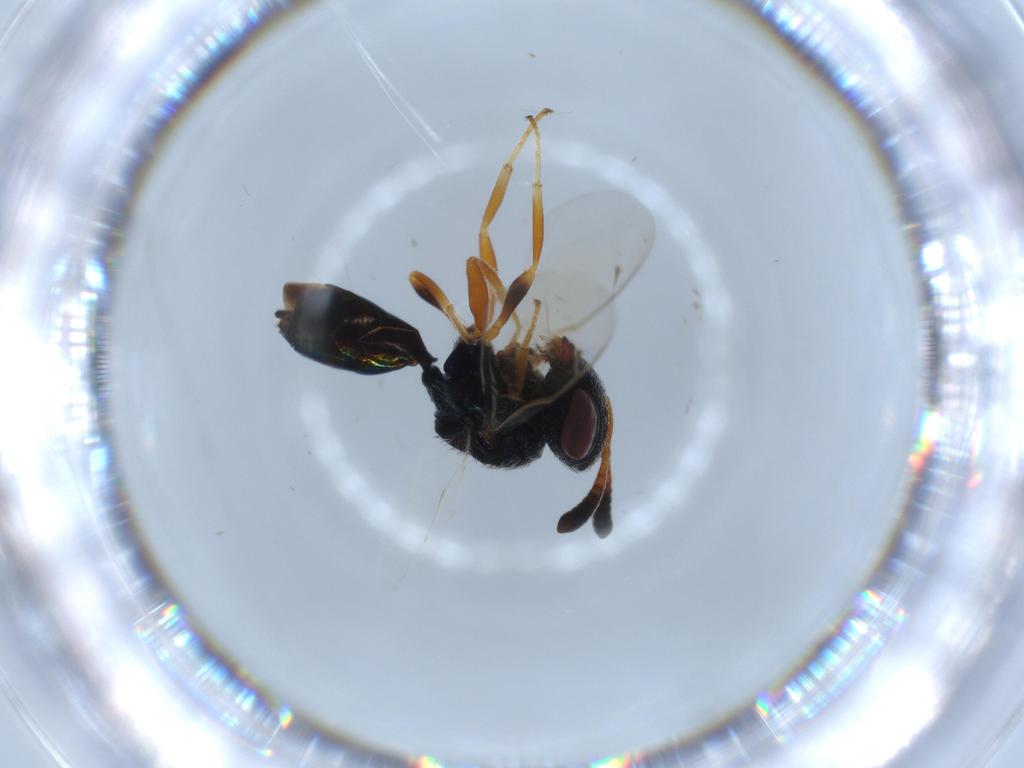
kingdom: Animalia
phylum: Arthropoda
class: Insecta
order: Hymenoptera
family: Agaonidae
